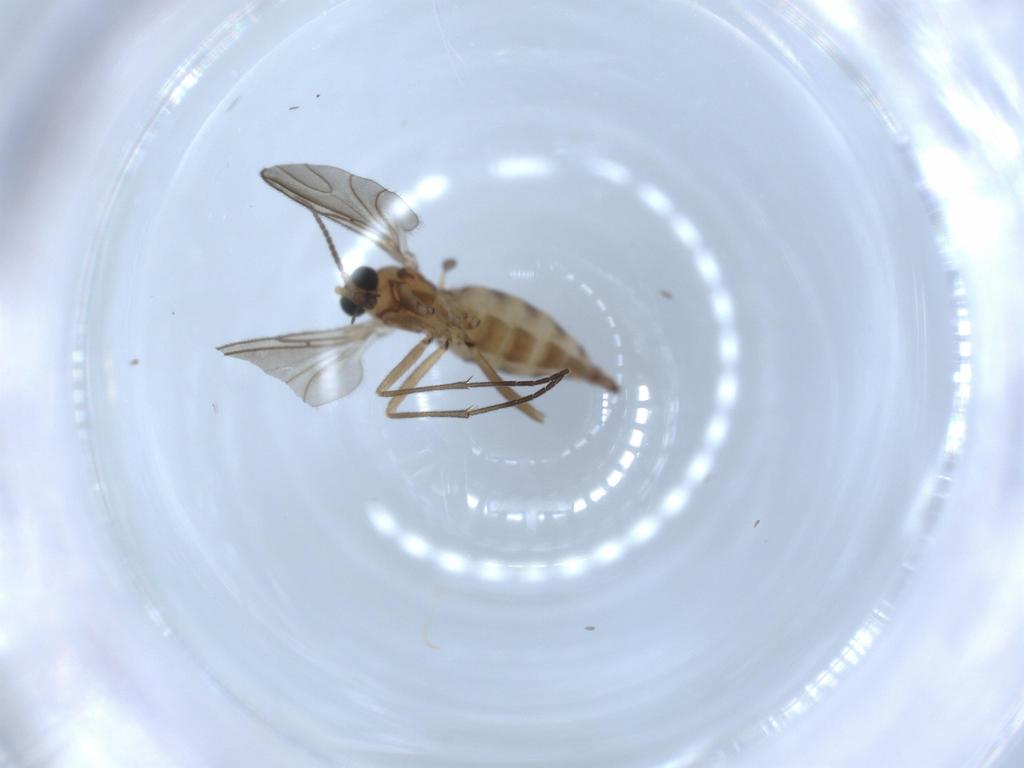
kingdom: Animalia
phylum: Arthropoda
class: Insecta
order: Diptera
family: Sciaridae
